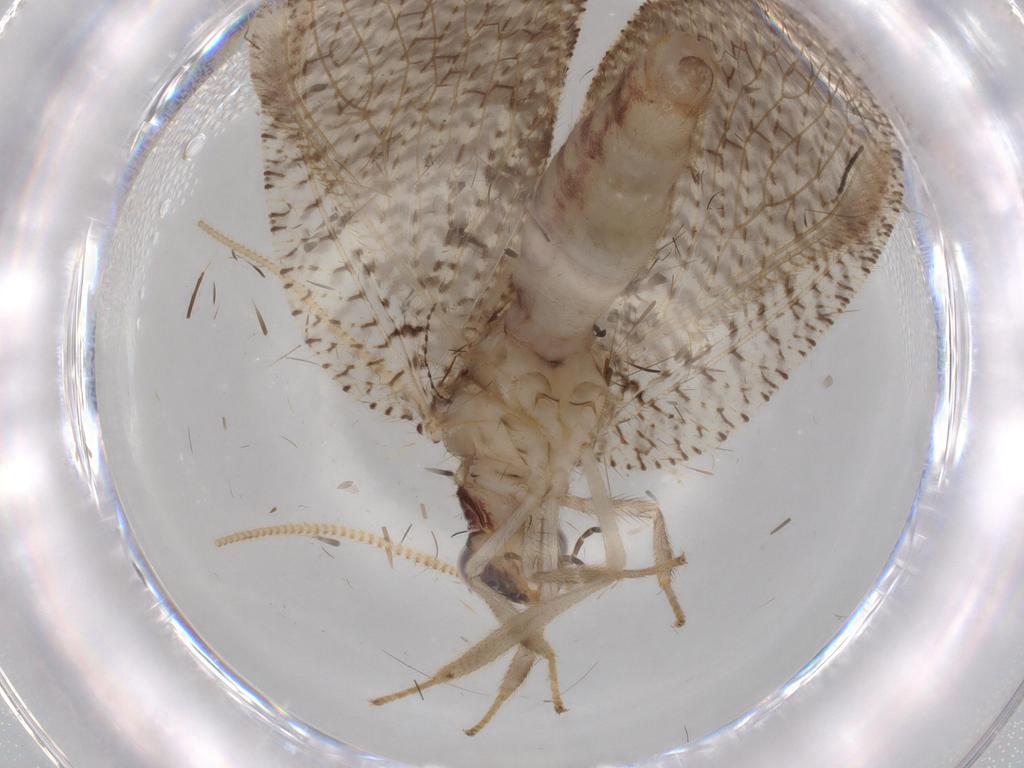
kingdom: Animalia
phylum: Arthropoda
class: Insecta
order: Neuroptera
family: Hemerobiidae
